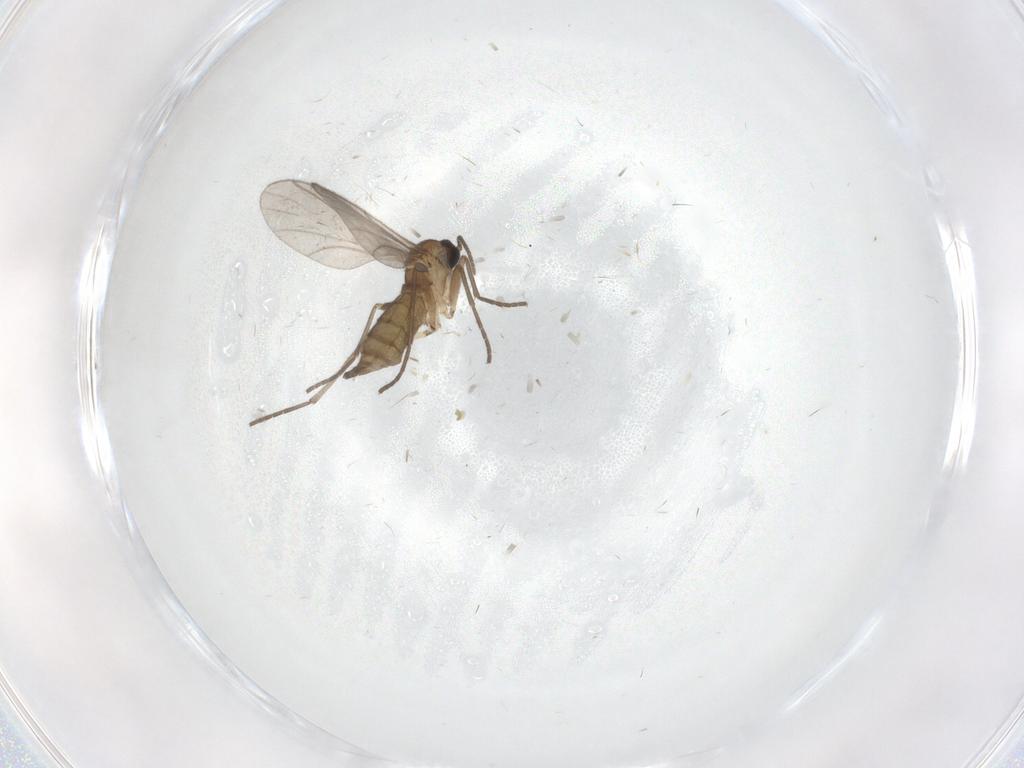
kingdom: Animalia
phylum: Arthropoda
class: Insecta
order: Diptera
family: Sciaridae
